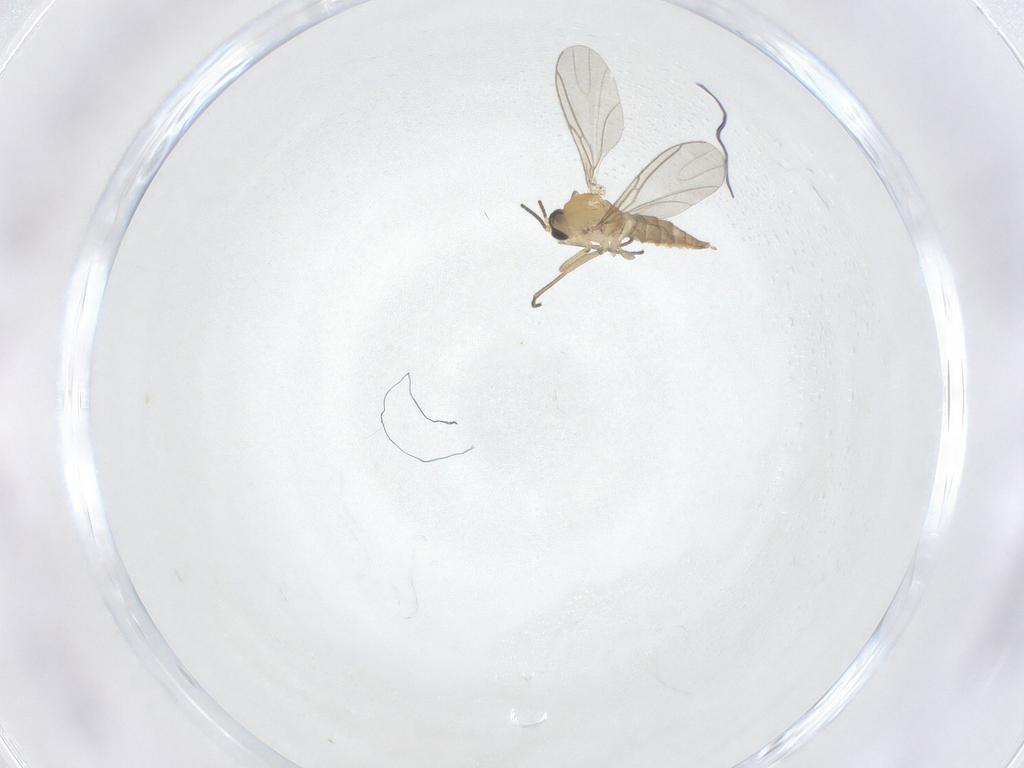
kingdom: Animalia
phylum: Arthropoda
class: Insecta
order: Diptera
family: Sciaridae
